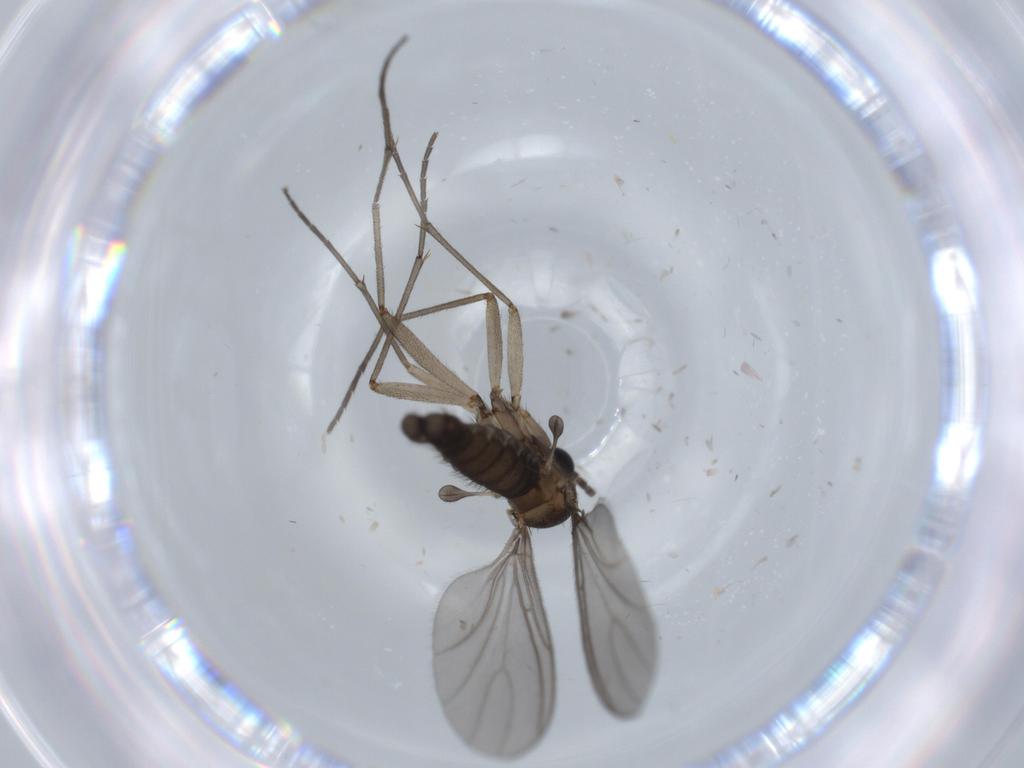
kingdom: Animalia
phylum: Arthropoda
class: Insecta
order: Diptera
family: Sciaridae
